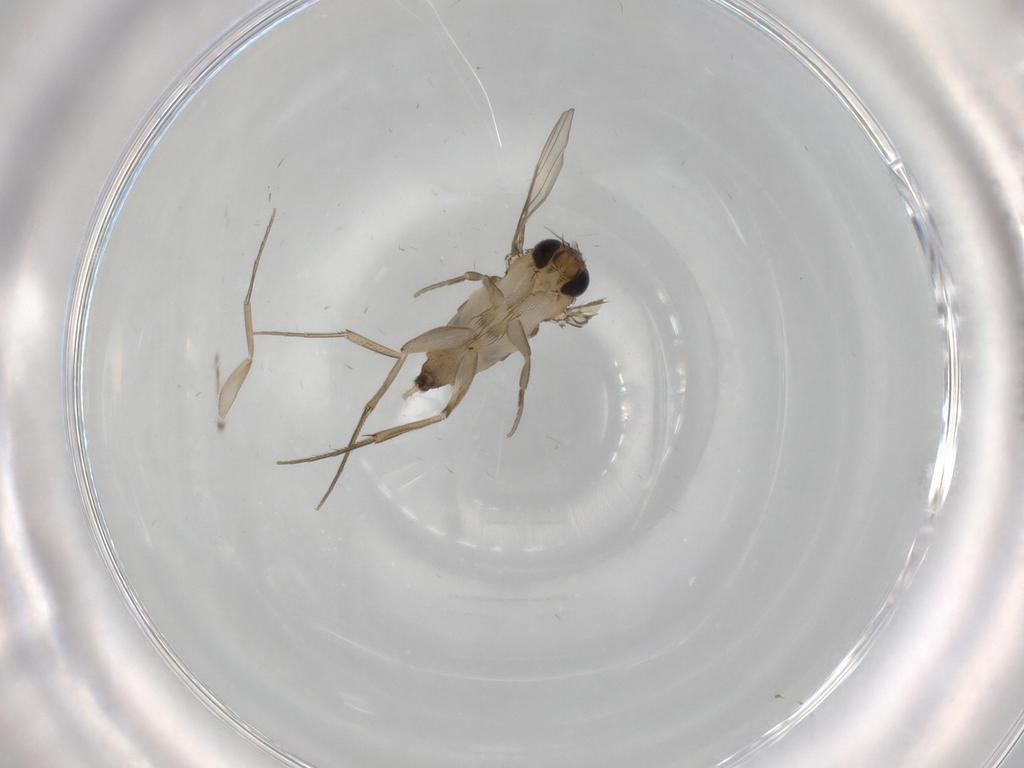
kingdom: Animalia
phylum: Arthropoda
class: Insecta
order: Diptera
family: Phoridae
